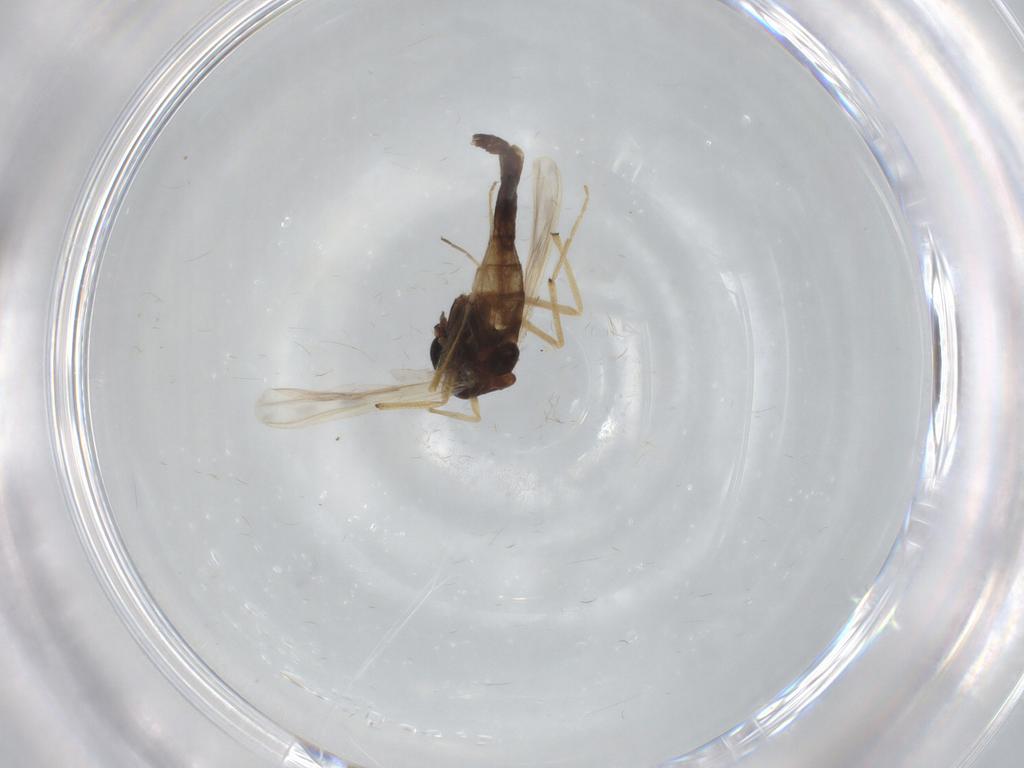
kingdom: Animalia
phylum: Arthropoda
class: Insecta
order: Diptera
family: Chironomidae
